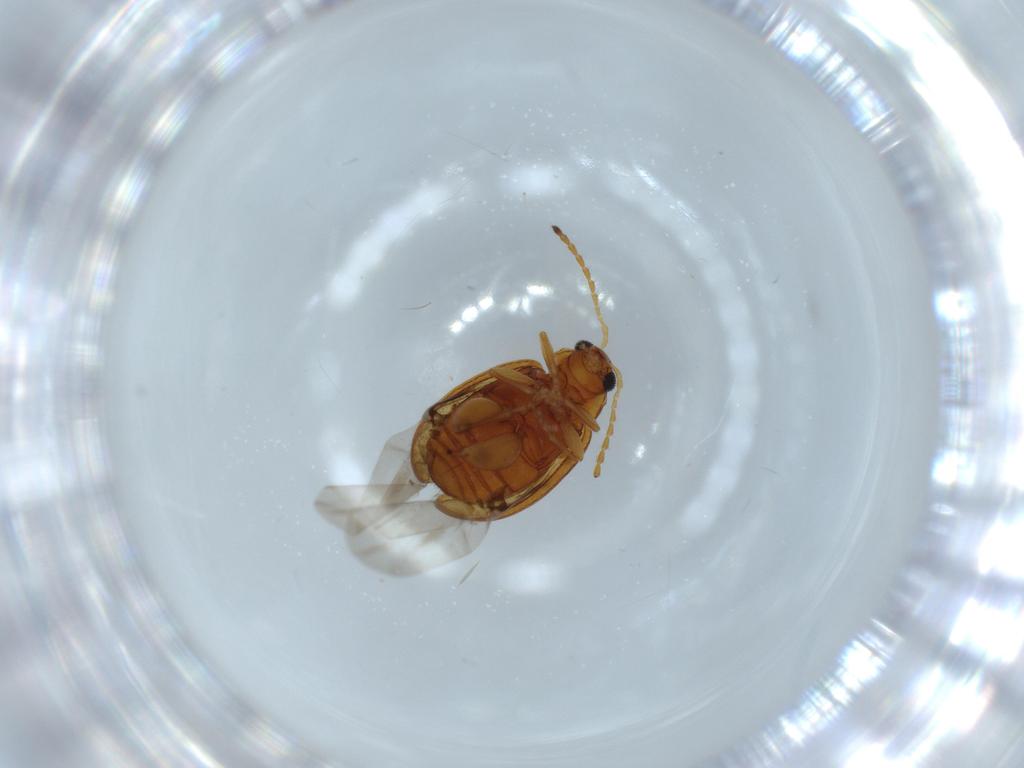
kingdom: Animalia
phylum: Arthropoda
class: Insecta
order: Coleoptera
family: Chrysomelidae
